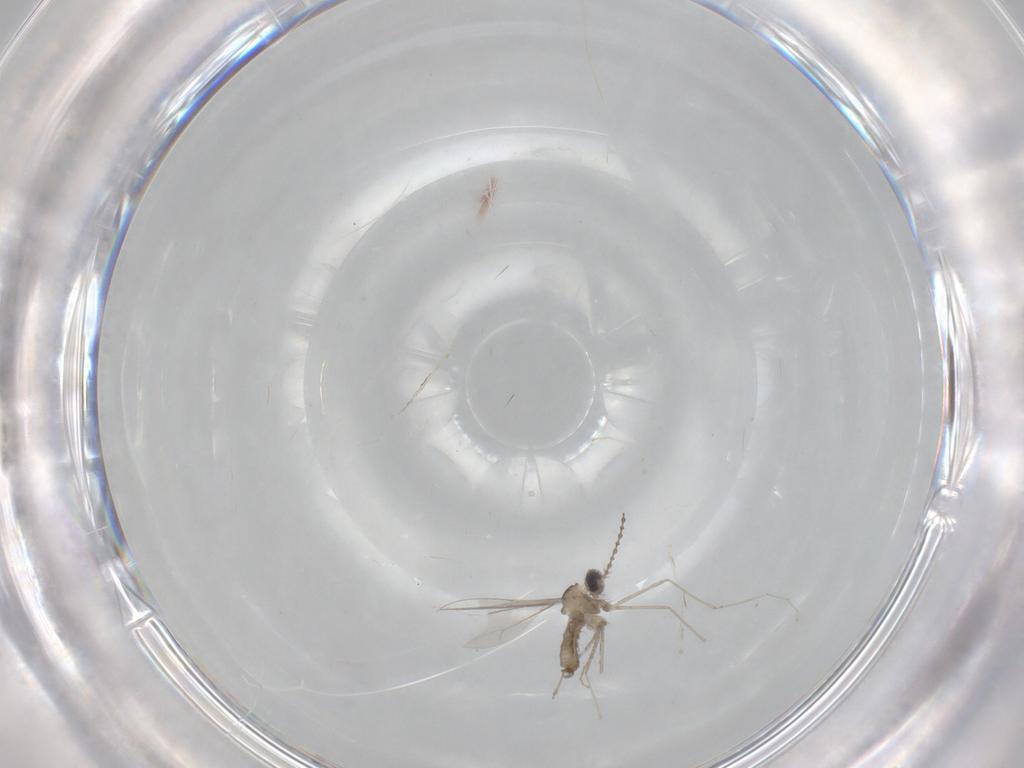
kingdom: Animalia
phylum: Arthropoda
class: Insecta
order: Diptera
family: Cecidomyiidae
